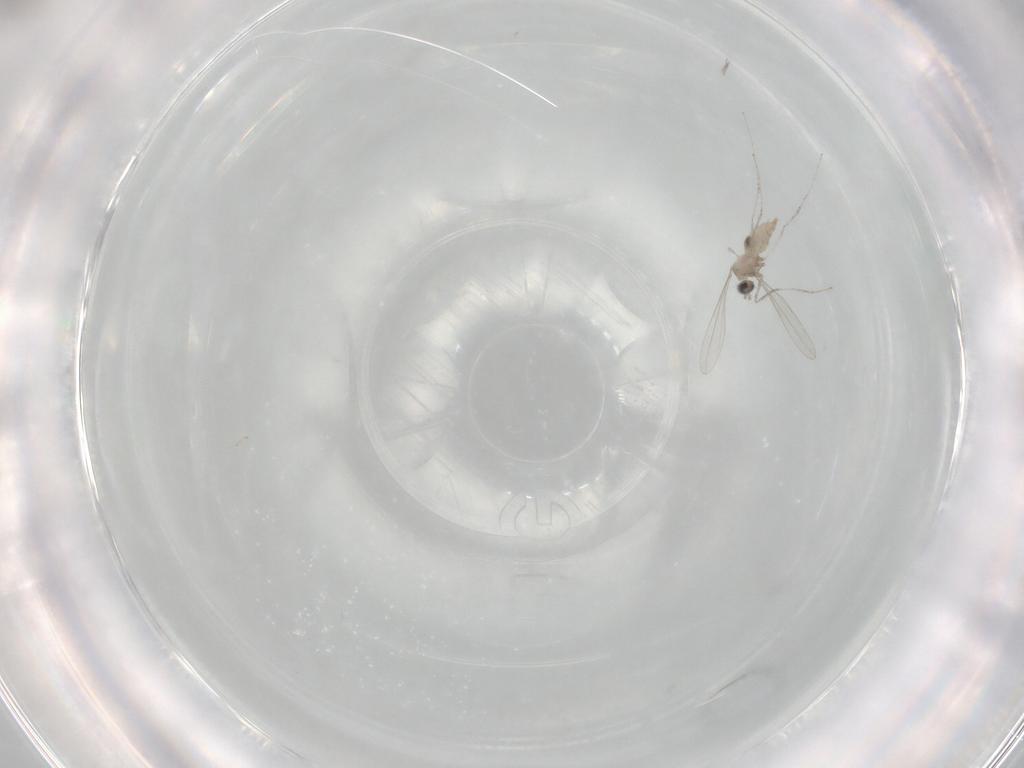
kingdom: Animalia
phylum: Arthropoda
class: Insecta
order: Diptera
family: Cecidomyiidae
